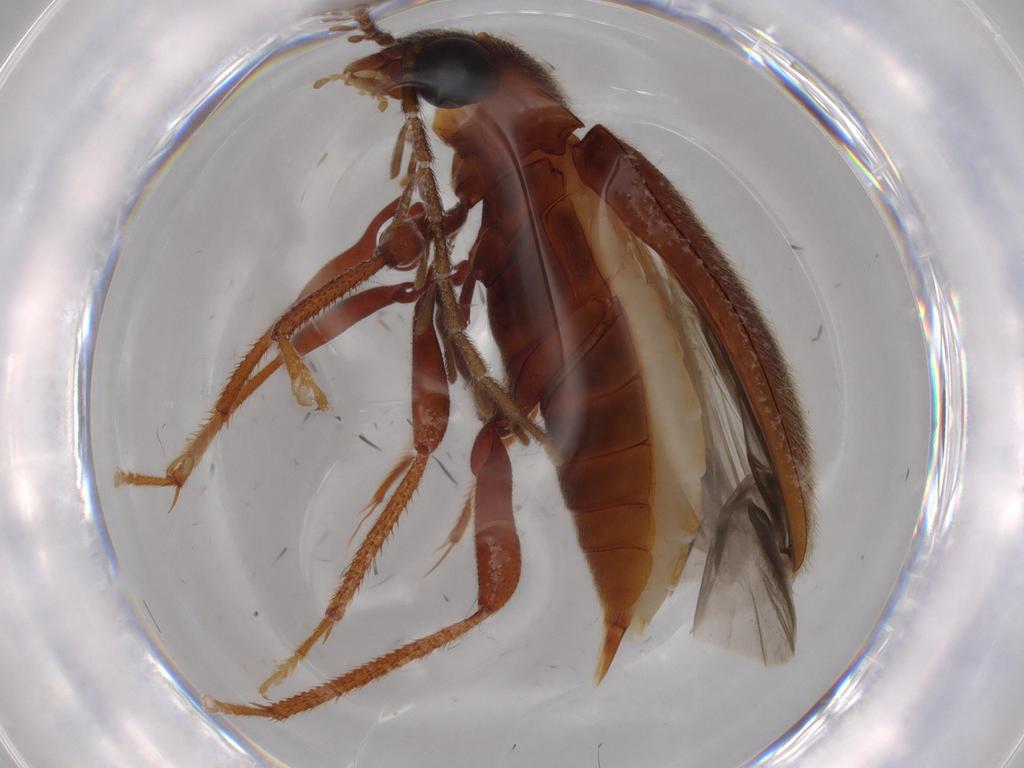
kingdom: Animalia
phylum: Arthropoda
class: Insecta
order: Coleoptera
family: Ptilodactylidae
